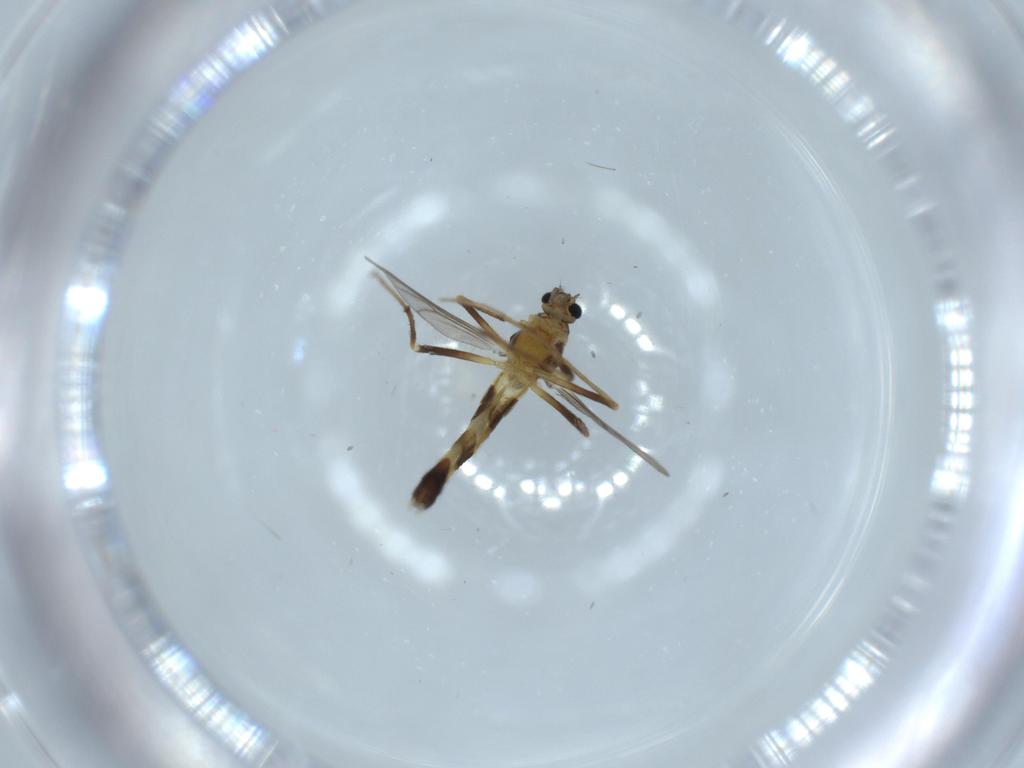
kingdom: Animalia
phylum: Arthropoda
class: Insecta
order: Diptera
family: Chironomidae
